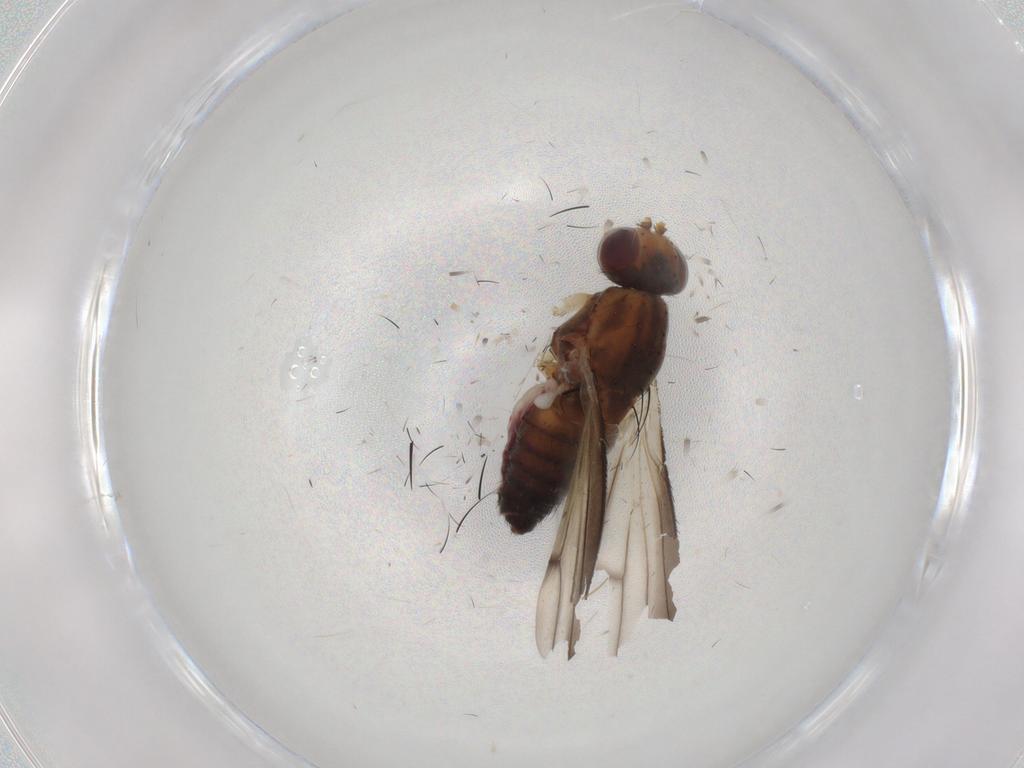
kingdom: Animalia
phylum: Arthropoda
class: Insecta
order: Diptera
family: Heleomyzidae
